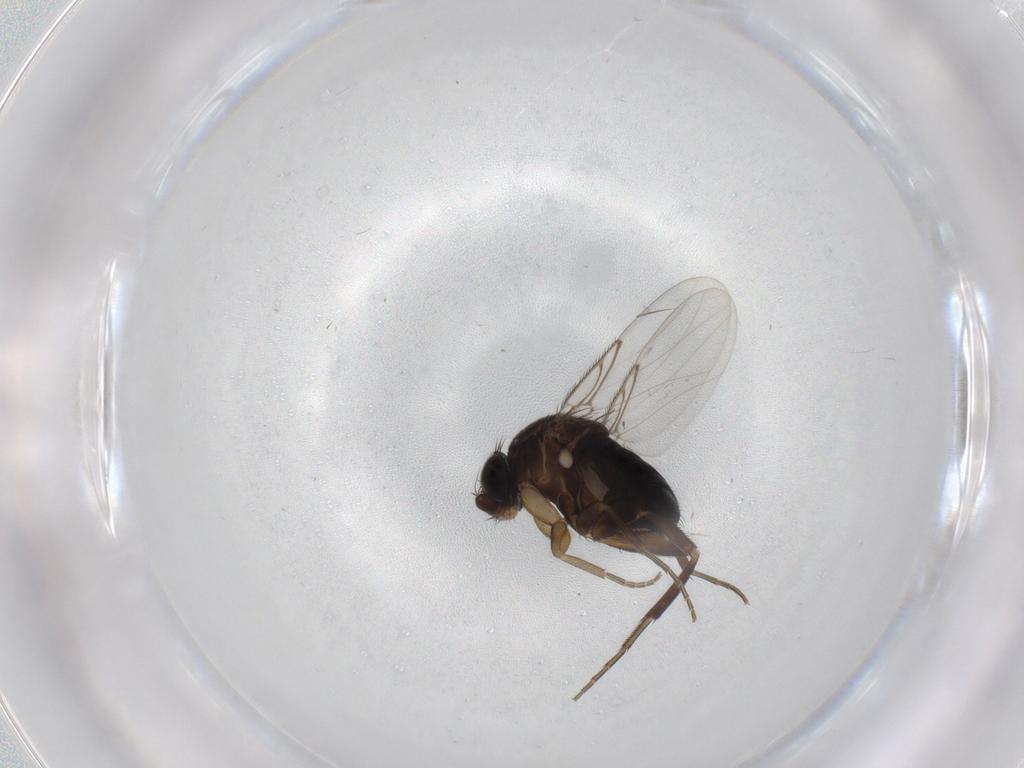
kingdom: Animalia
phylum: Arthropoda
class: Insecta
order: Diptera
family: Phoridae
